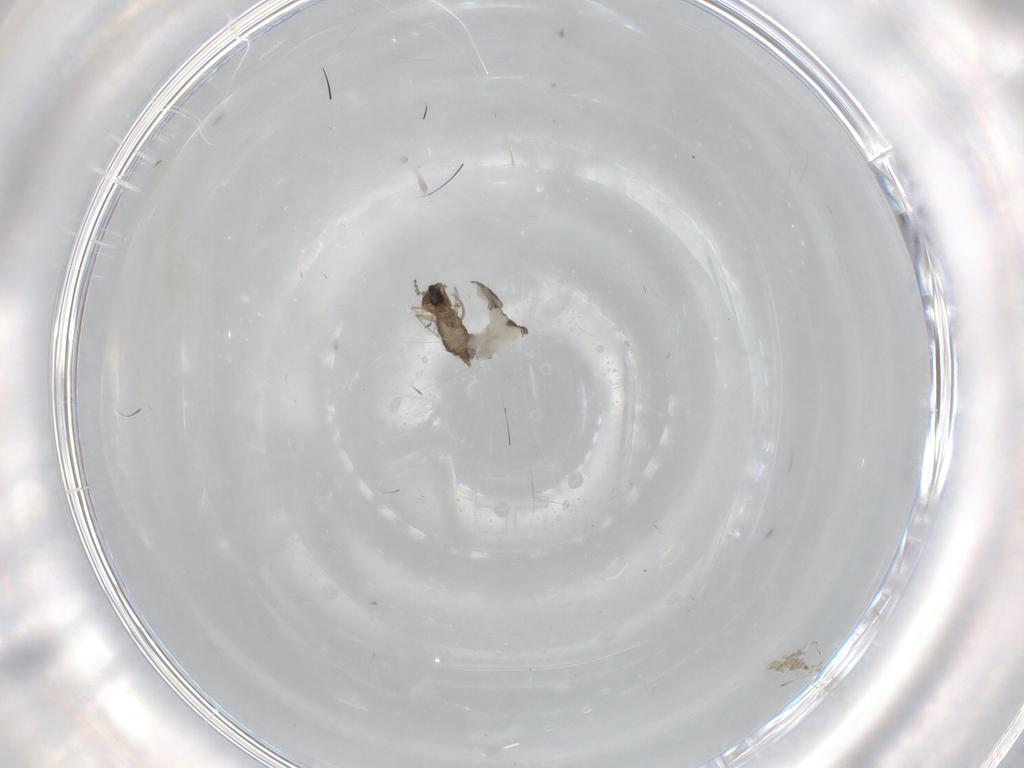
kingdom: Animalia
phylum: Arthropoda
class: Insecta
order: Diptera
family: Cecidomyiidae
